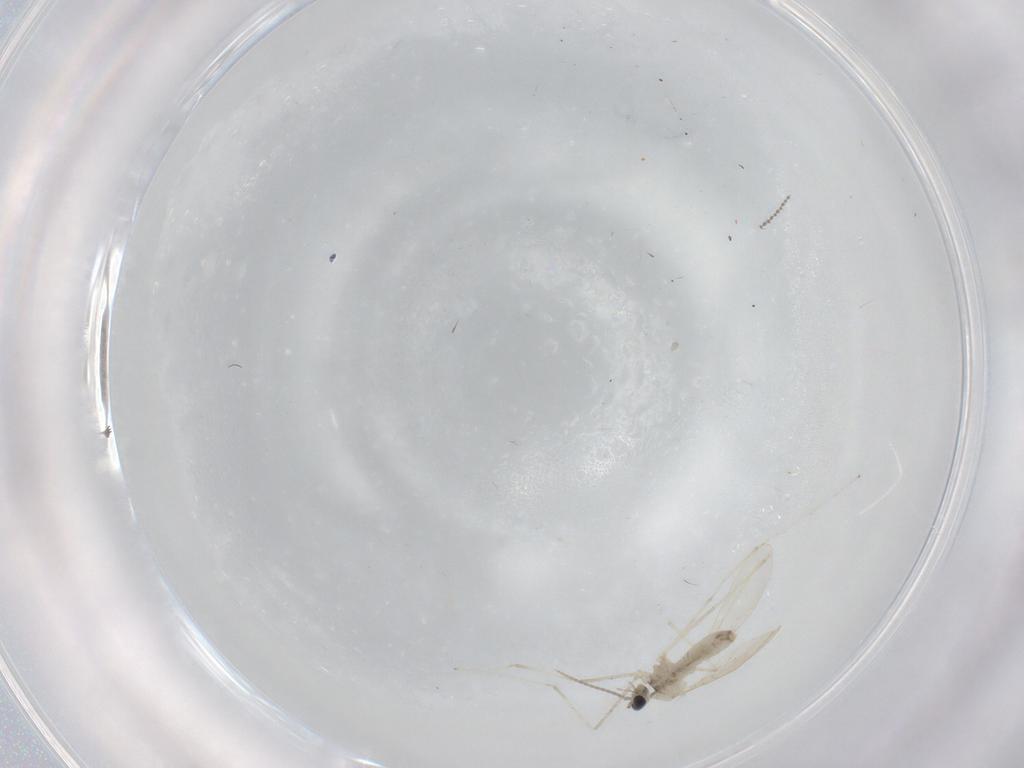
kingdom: Animalia
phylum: Arthropoda
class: Insecta
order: Diptera
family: Cecidomyiidae
